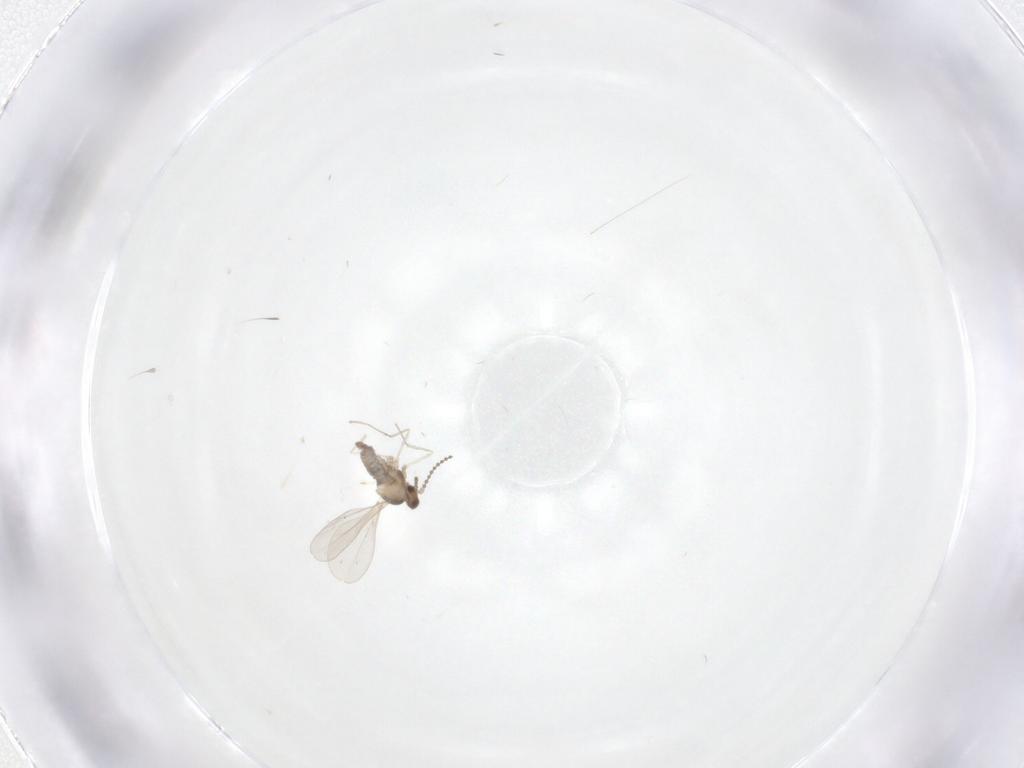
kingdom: Animalia
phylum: Arthropoda
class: Insecta
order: Diptera
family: Cecidomyiidae
